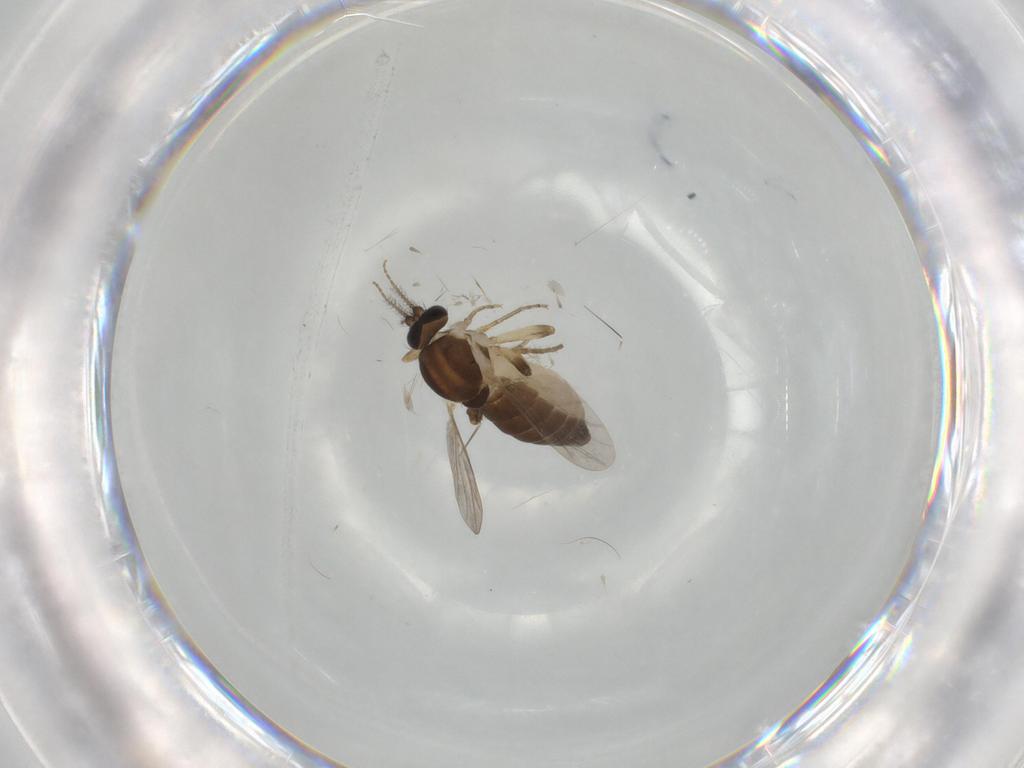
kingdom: Animalia
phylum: Arthropoda
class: Insecta
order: Diptera
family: Ceratopogonidae
